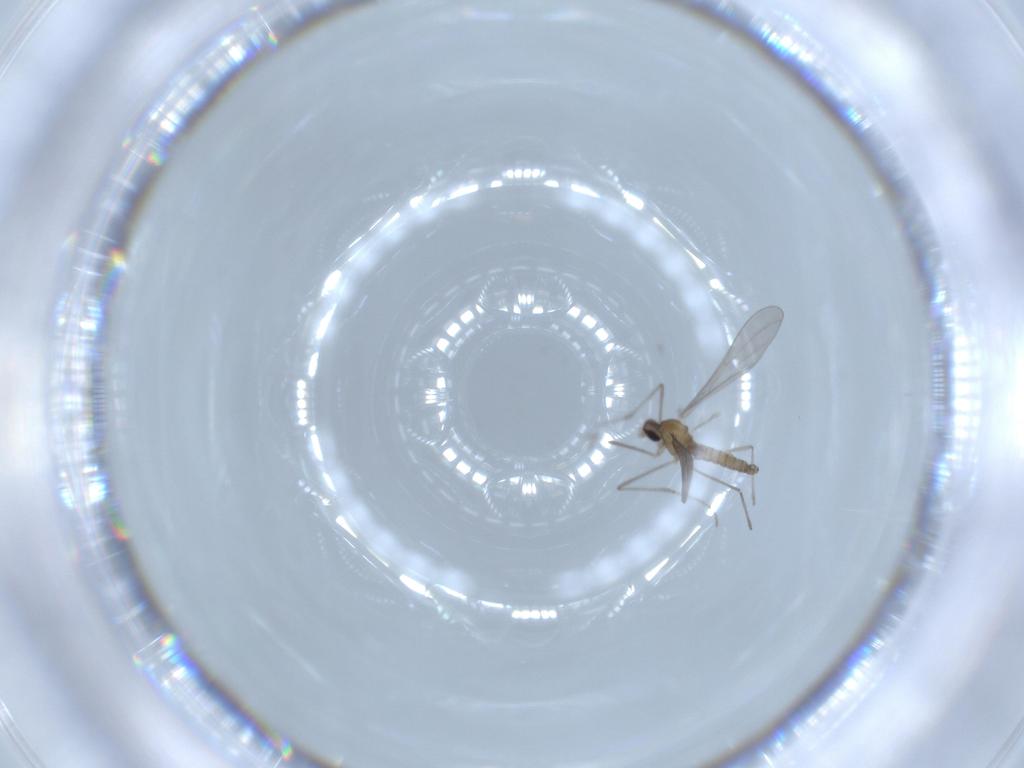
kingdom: Animalia
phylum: Arthropoda
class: Insecta
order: Diptera
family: Cecidomyiidae
